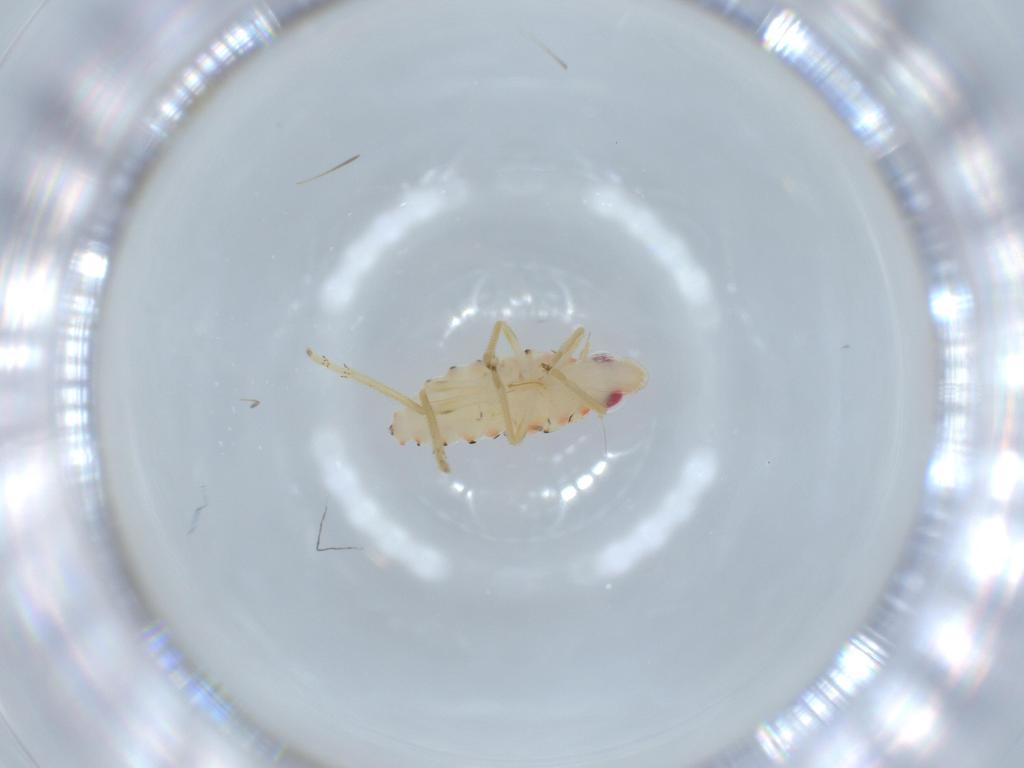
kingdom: Animalia
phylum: Arthropoda
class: Insecta
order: Hemiptera
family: Tropiduchidae
